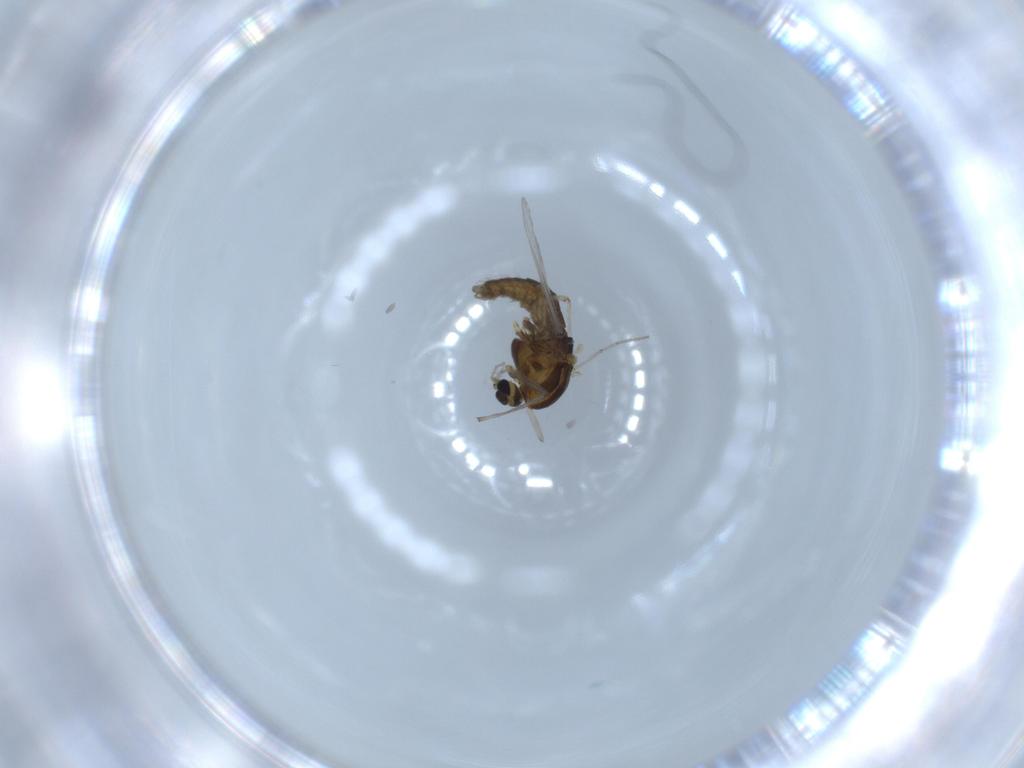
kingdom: Animalia
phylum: Arthropoda
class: Insecta
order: Diptera
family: Chironomidae
